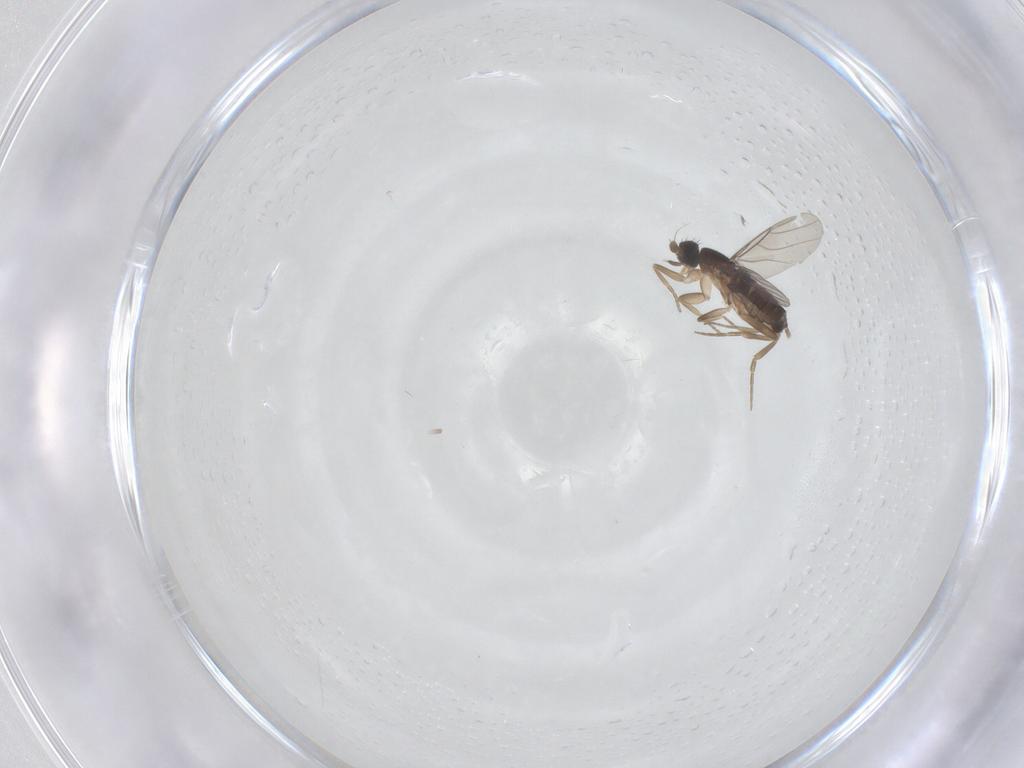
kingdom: Animalia
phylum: Arthropoda
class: Insecta
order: Diptera
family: Phoridae
